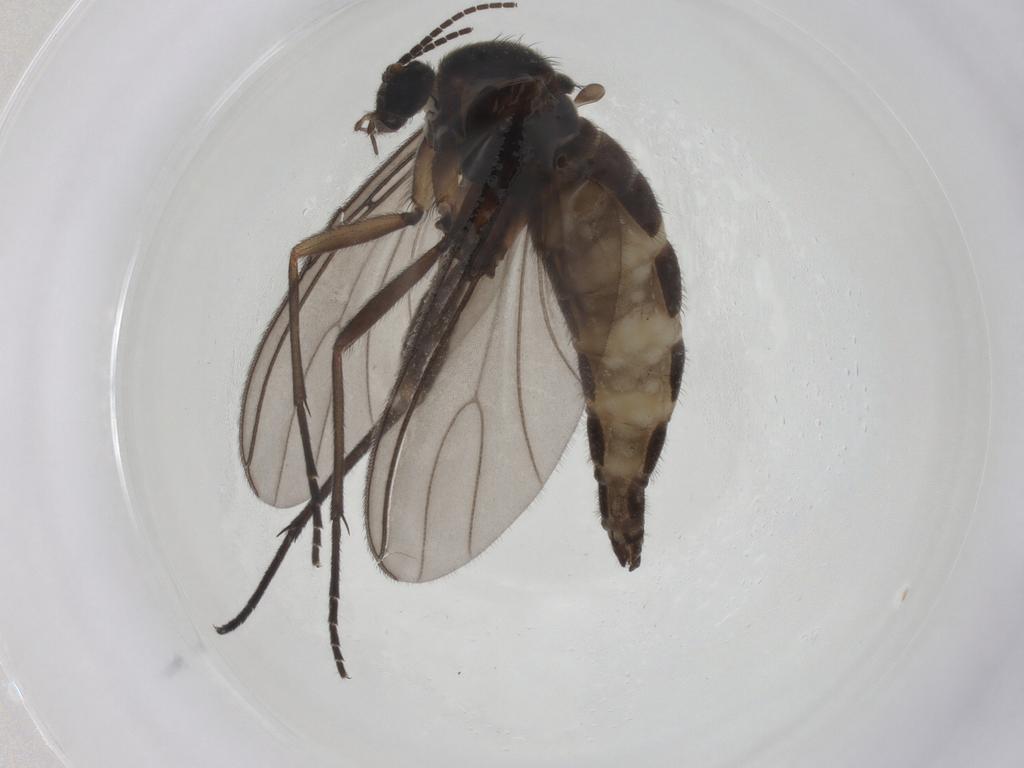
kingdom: Animalia
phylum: Arthropoda
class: Insecta
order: Diptera
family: Sciaridae
